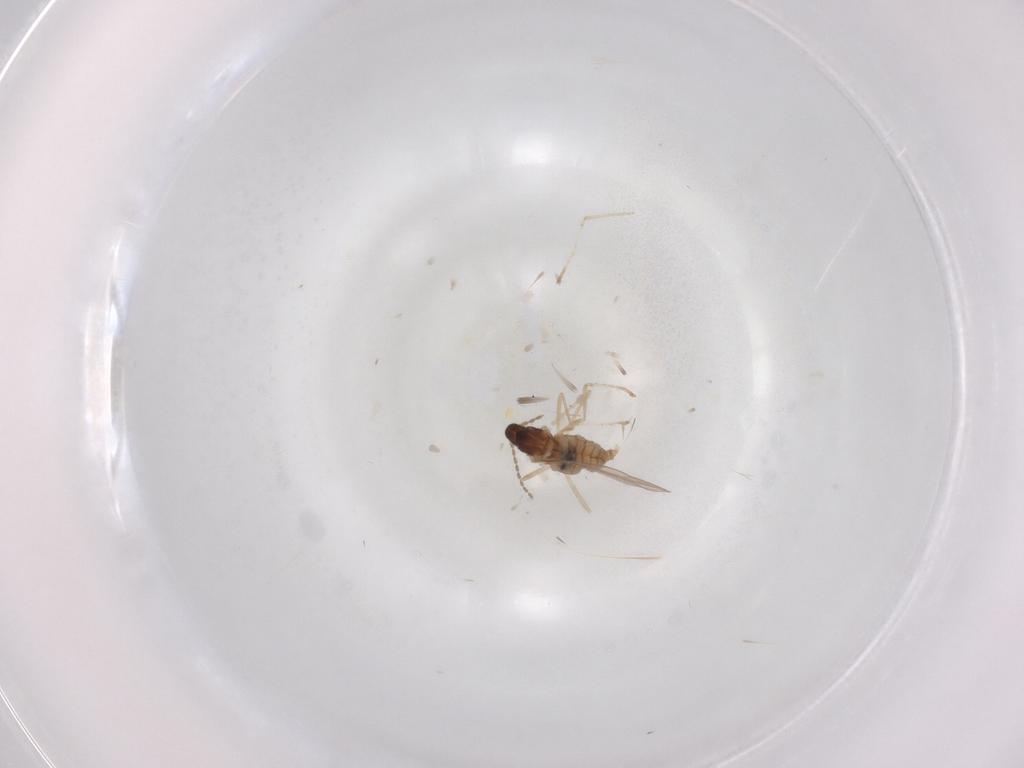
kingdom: Animalia
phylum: Arthropoda
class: Insecta
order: Diptera
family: Cecidomyiidae
